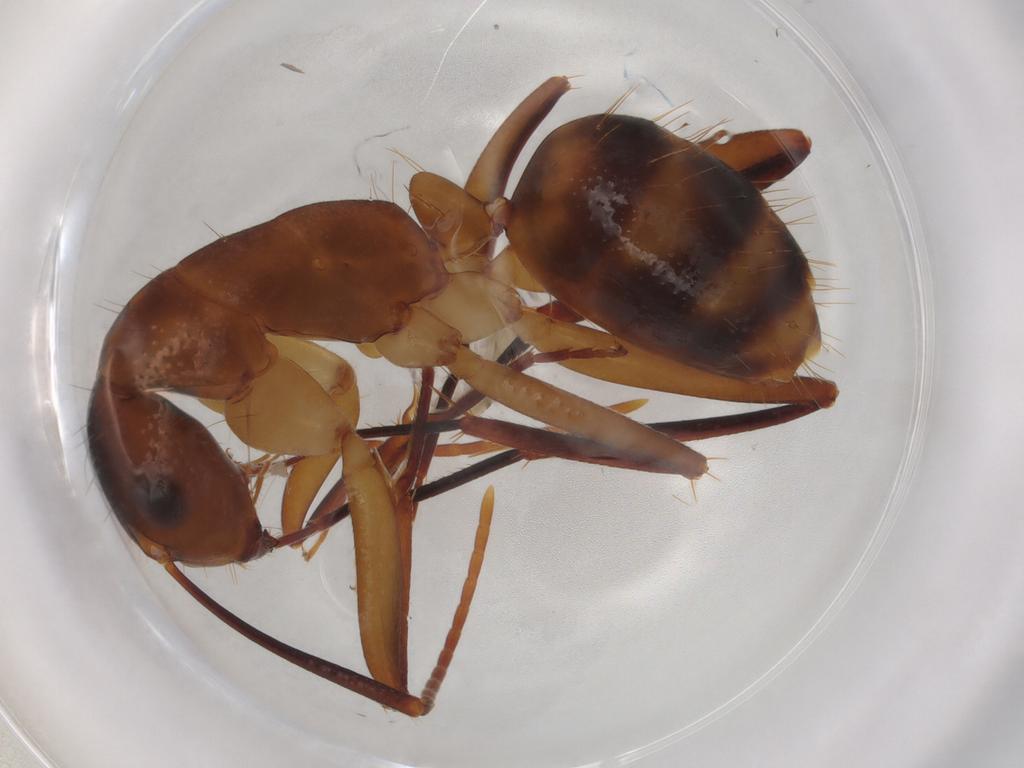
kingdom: Animalia
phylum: Arthropoda
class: Insecta
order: Hymenoptera
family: Formicidae
